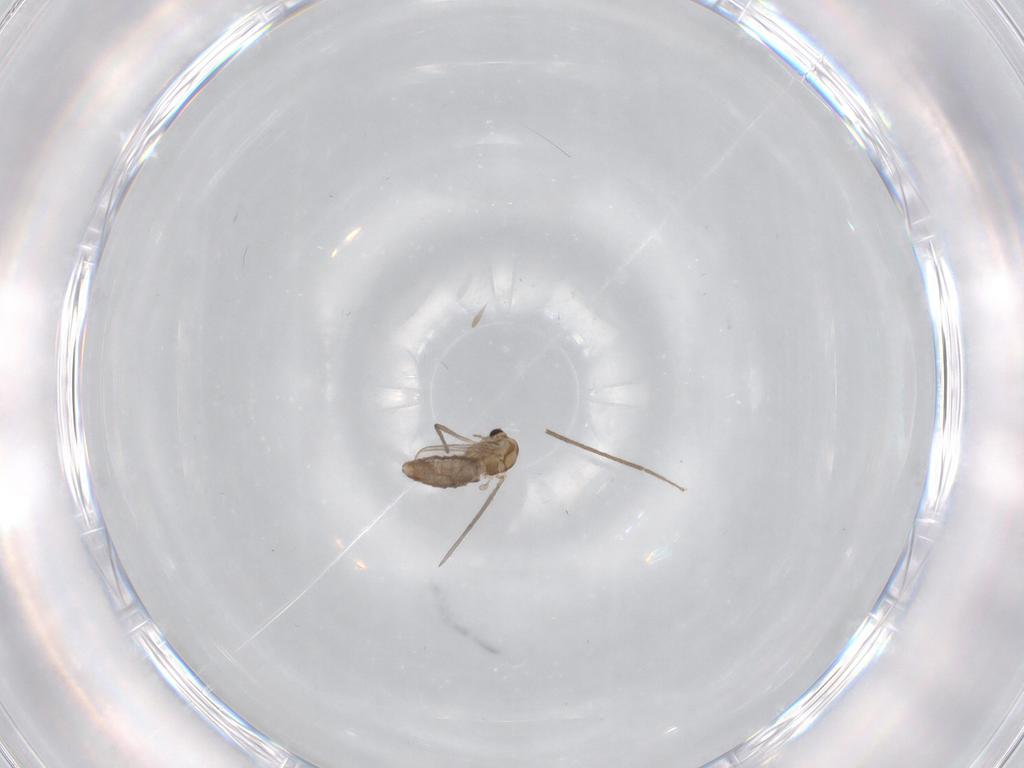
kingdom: Animalia
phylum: Arthropoda
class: Insecta
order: Diptera
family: Chironomidae
